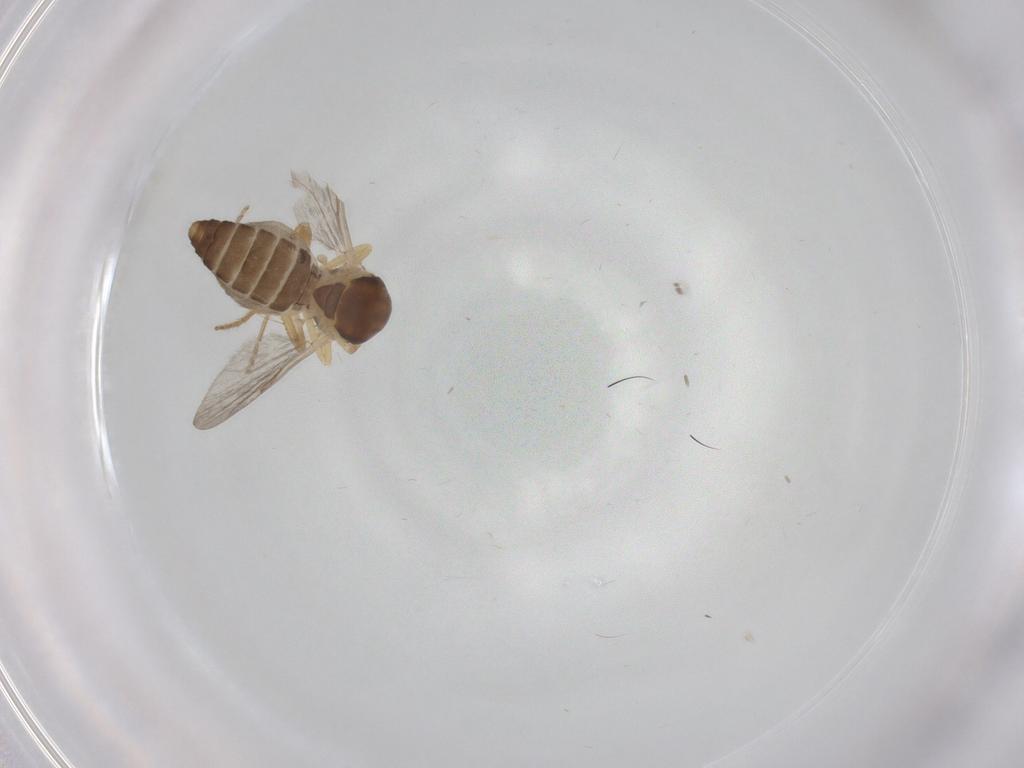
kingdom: Animalia
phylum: Arthropoda
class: Insecta
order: Diptera
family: Ceratopogonidae
